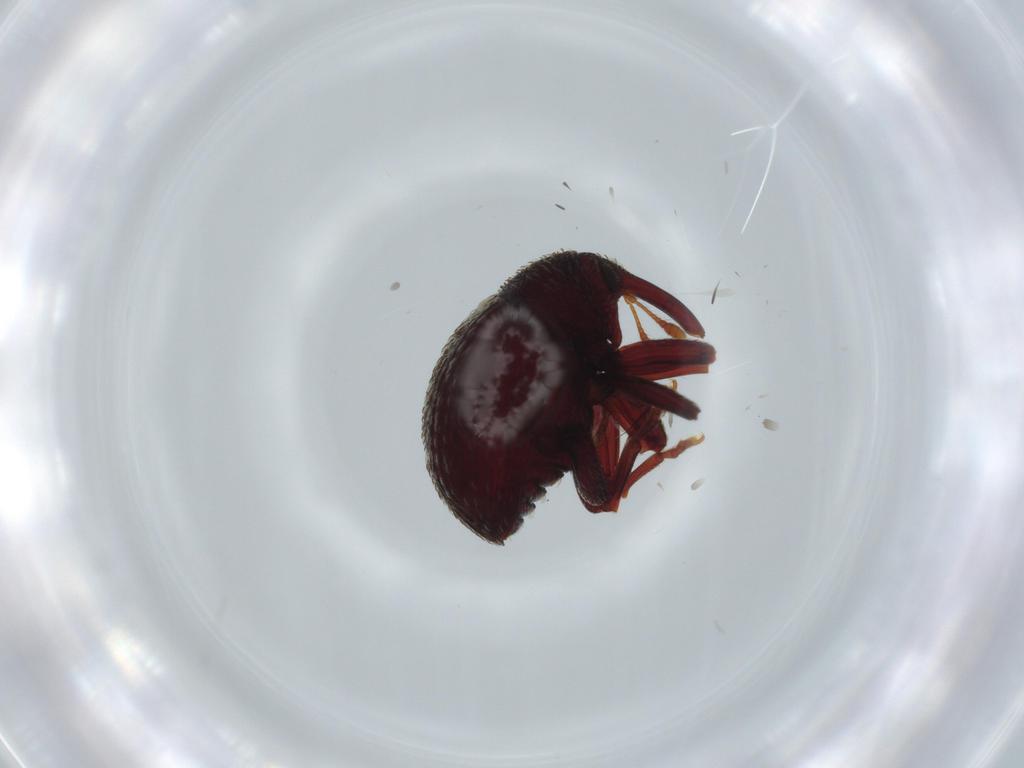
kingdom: Animalia
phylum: Arthropoda
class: Insecta
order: Coleoptera
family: Curculionidae
